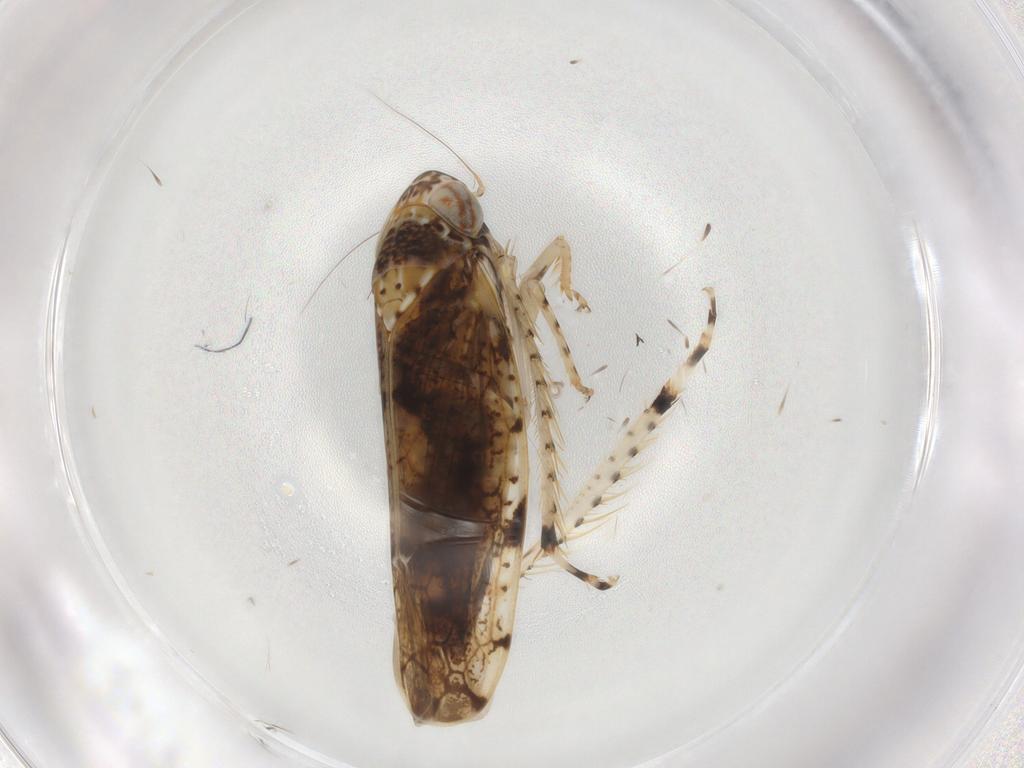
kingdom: Animalia
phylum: Arthropoda
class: Insecta
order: Hemiptera
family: Cicadellidae
